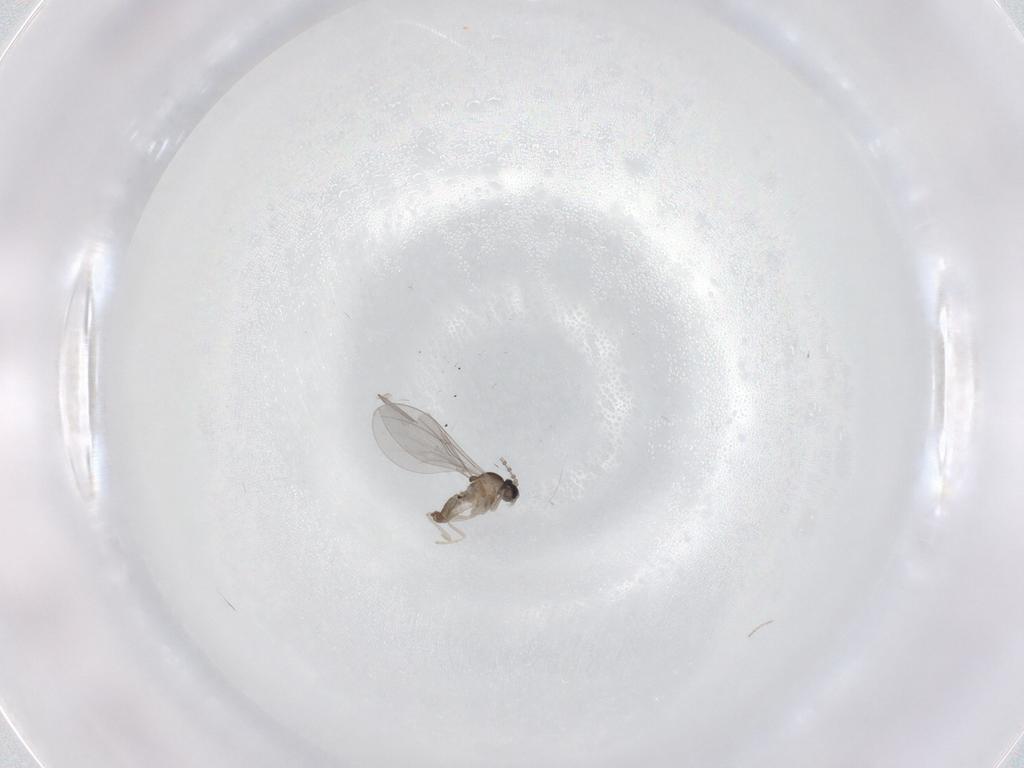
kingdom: Animalia
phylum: Arthropoda
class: Insecta
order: Diptera
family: Cecidomyiidae
